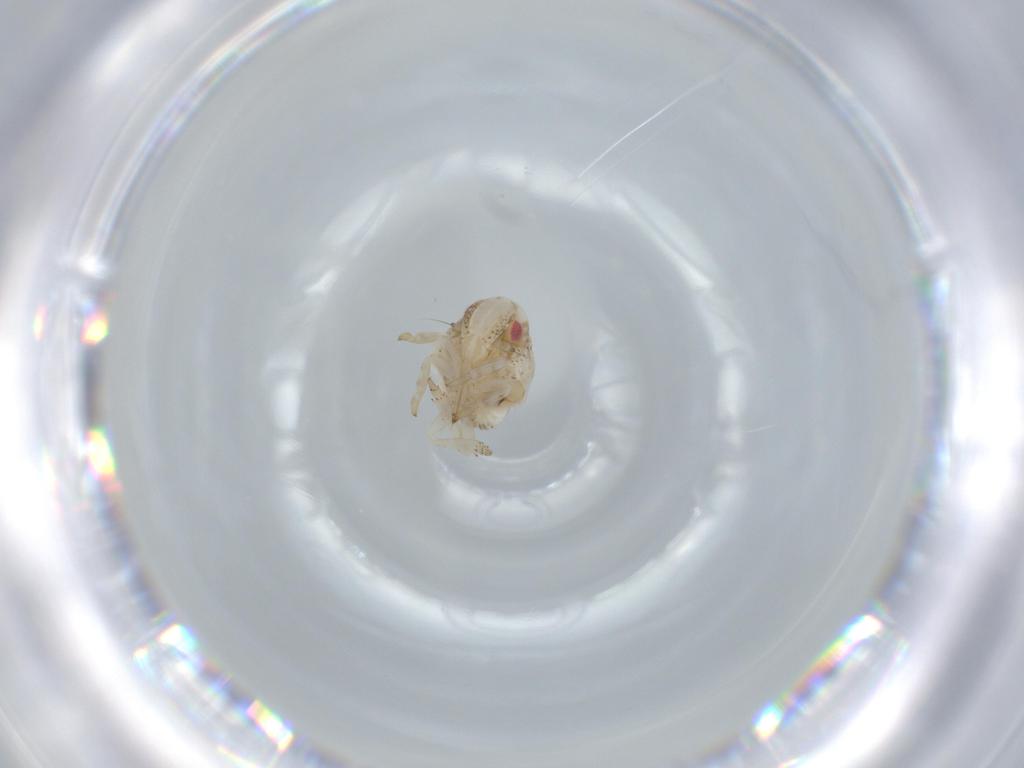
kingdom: Animalia
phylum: Arthropoda
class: Insecta
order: Hemiptera
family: Acanaloniidae
